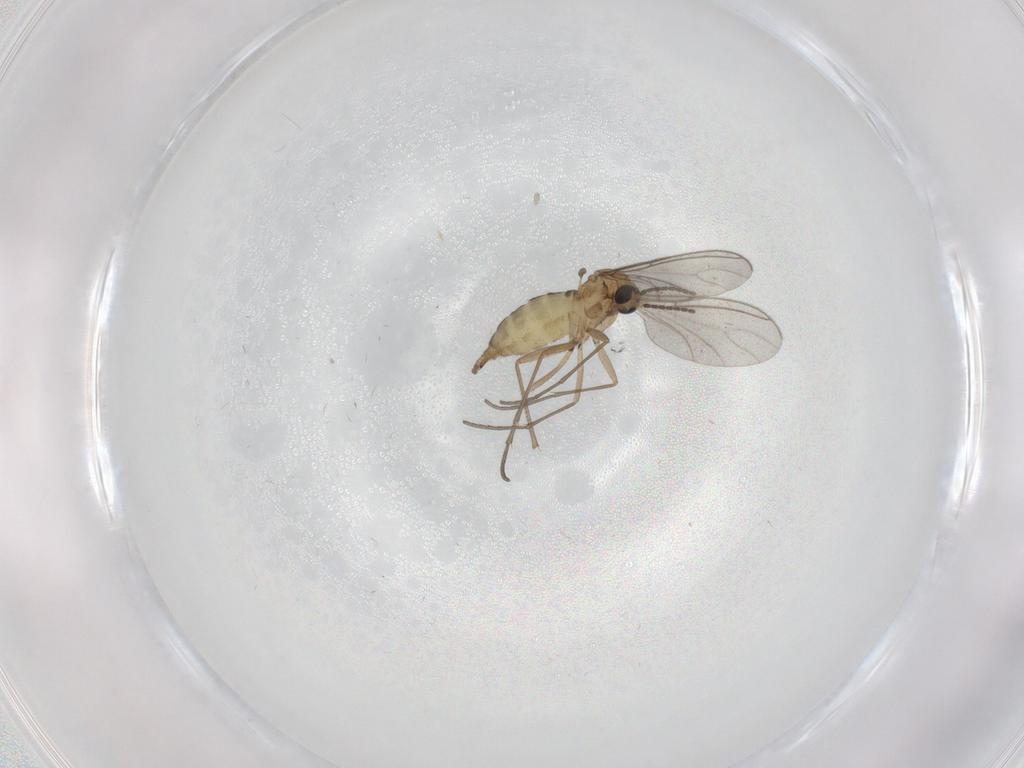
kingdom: Animalia
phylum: Arthropoda
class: Insecta
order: Diptera
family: Sciaridae
